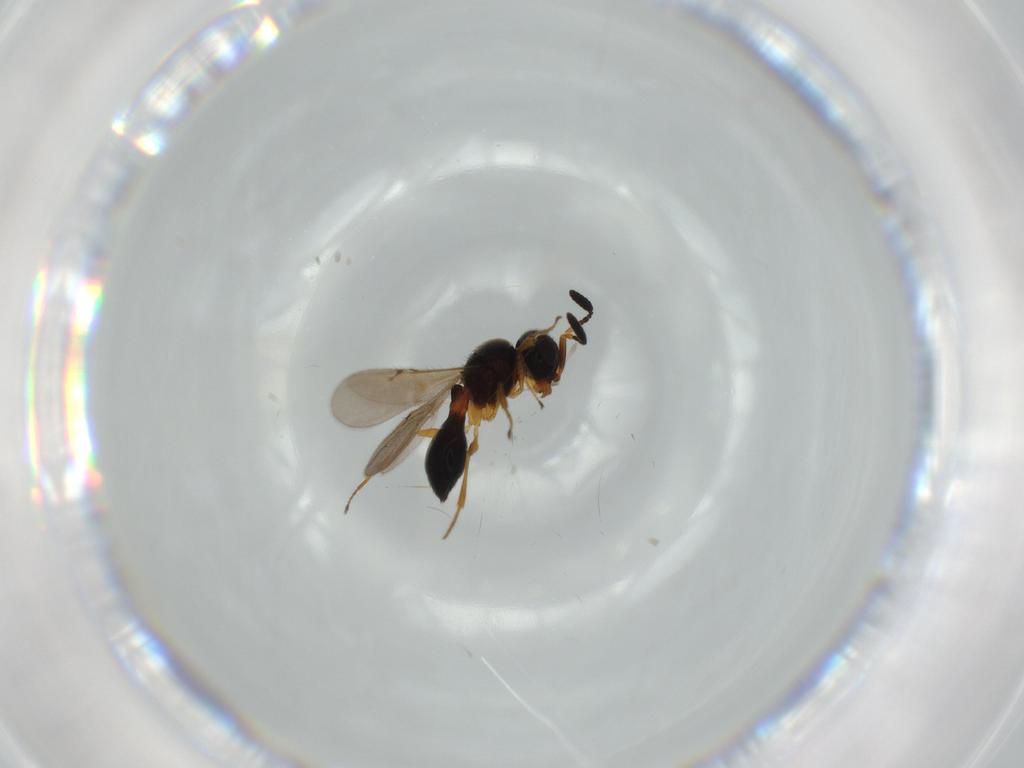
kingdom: Animalia
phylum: Arthropoda
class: Insecta
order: Hymenoptera
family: Scelionidae
